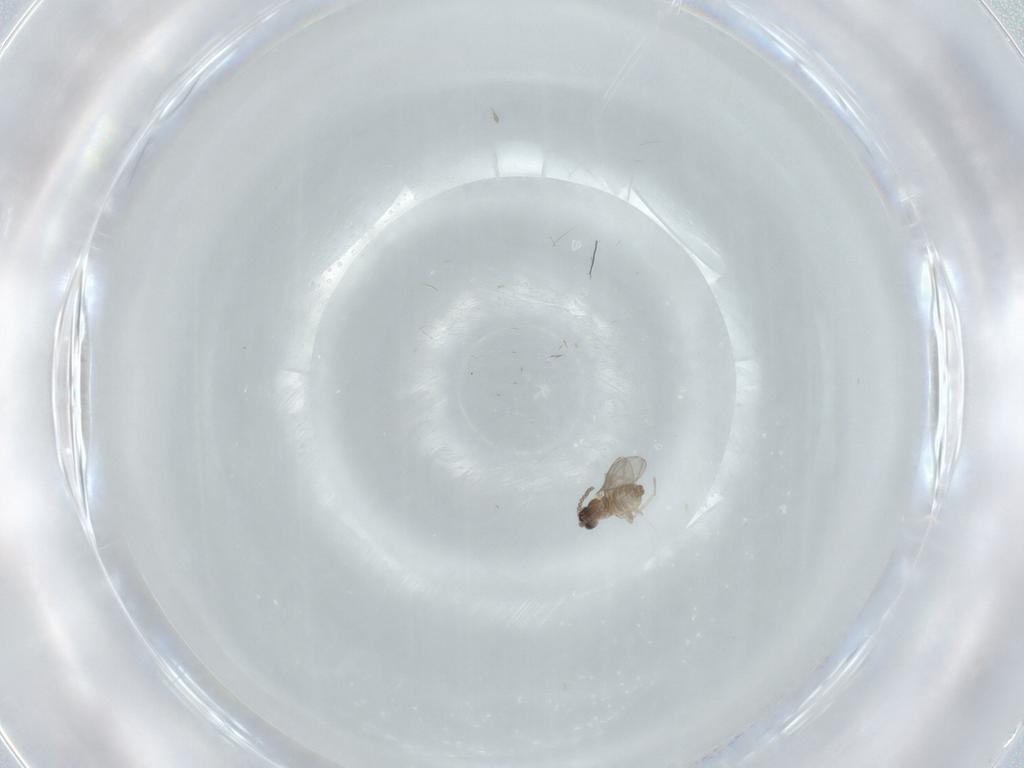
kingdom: Animalia
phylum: Arthropoda
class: Insecta
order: Diptera
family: Cecidomyiidae
